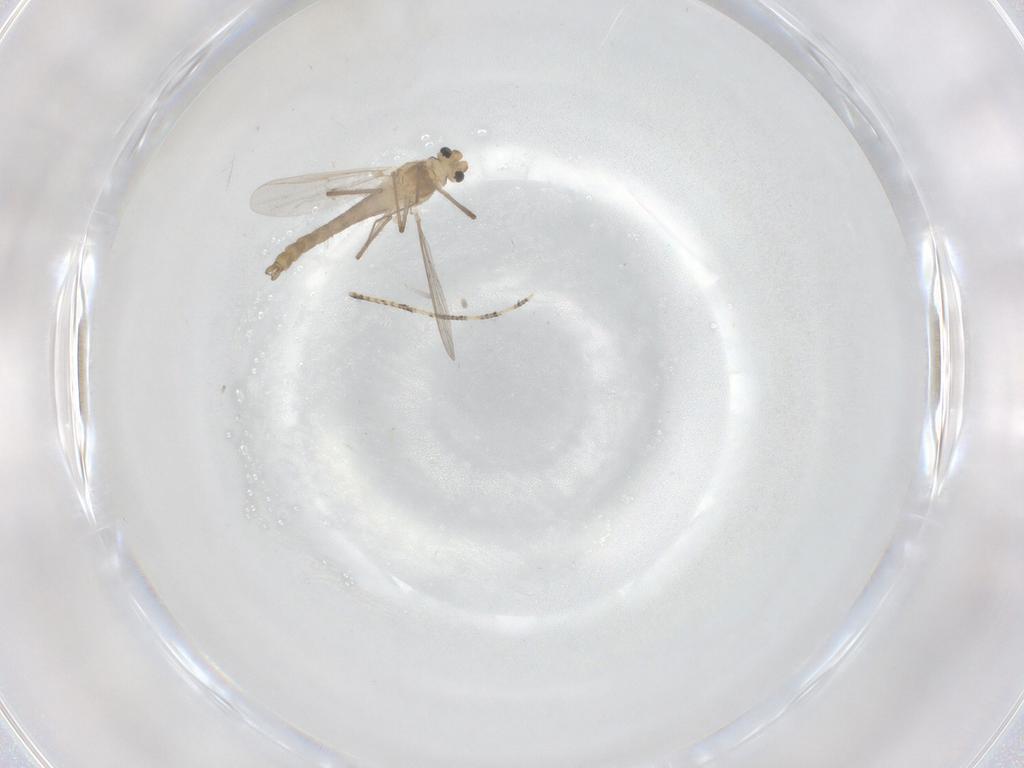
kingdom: Animalia
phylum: Arthropoda
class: Insecta
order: Diptera
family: Chironomidae
